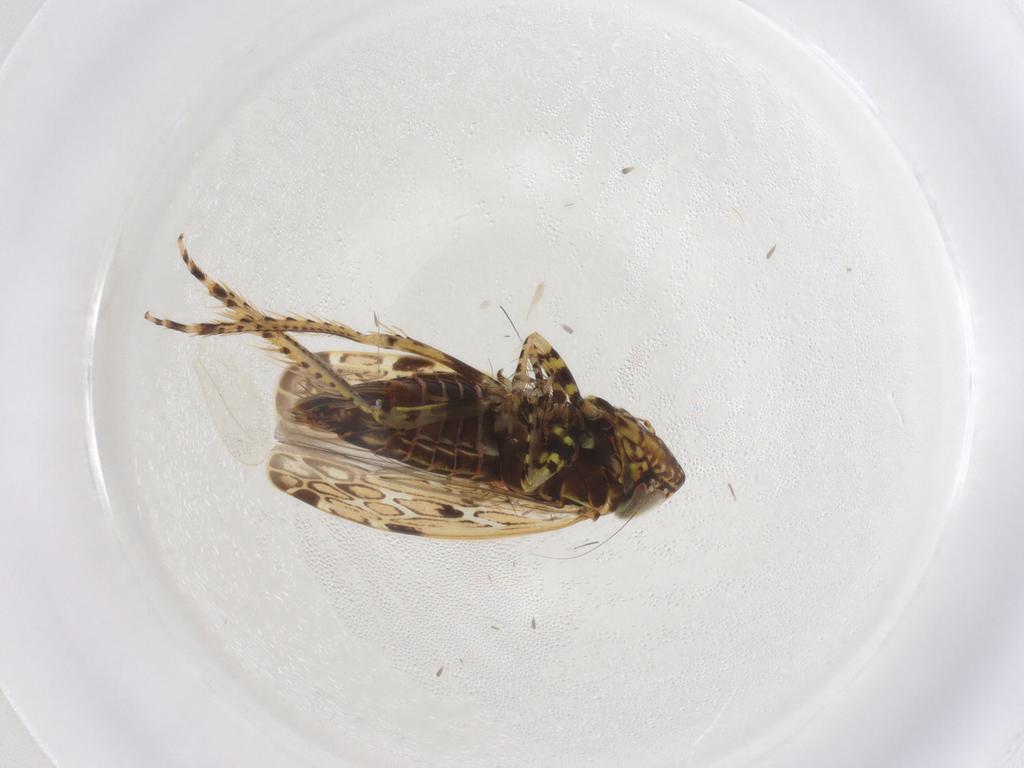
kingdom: Animalia
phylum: Arthropoda
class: Insecta
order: Hemiptera
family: Cicadellidae
